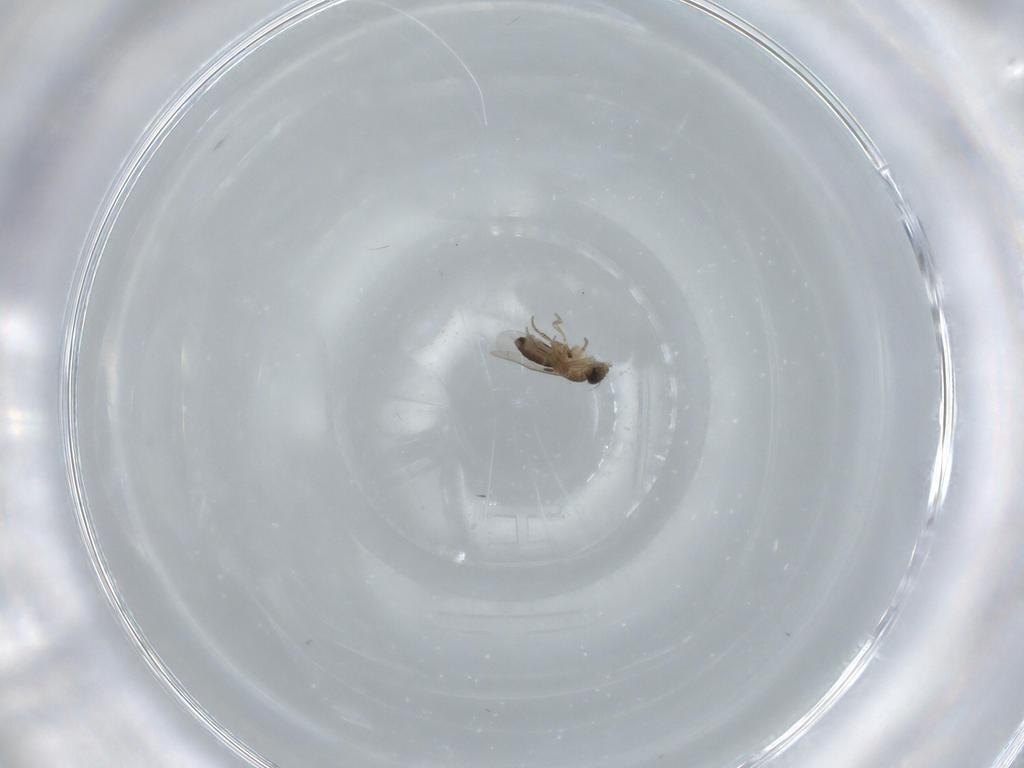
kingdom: Animalia
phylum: Arthropoda
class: Insecta
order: Diptera
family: Phoridae
